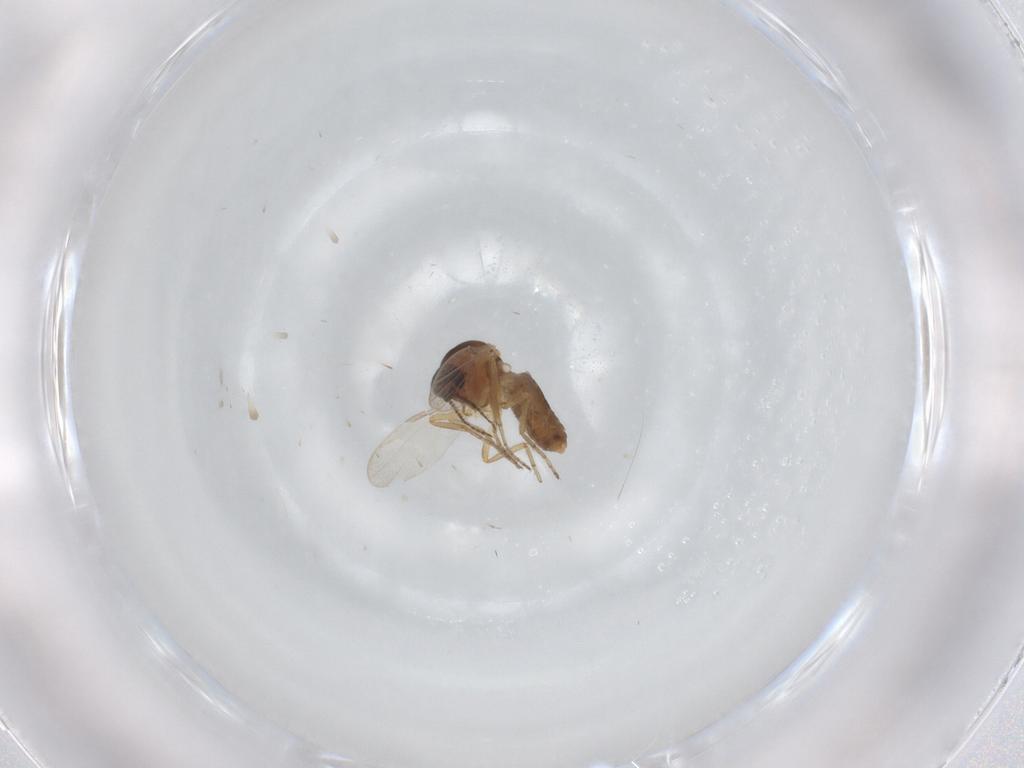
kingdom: Animalia
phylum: Arthropoda
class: Insecta
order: Diptera
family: Ceratopogonidae
